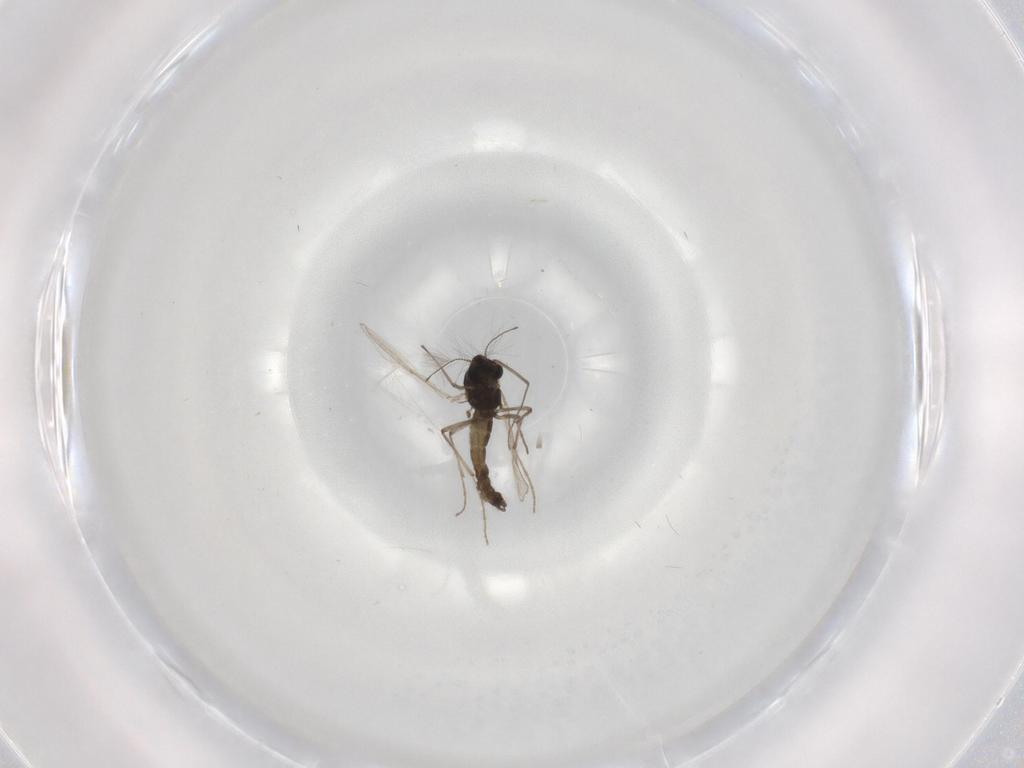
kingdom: Animalia
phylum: Arthropoda
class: Insecta
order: Diptera
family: Chironomidae
